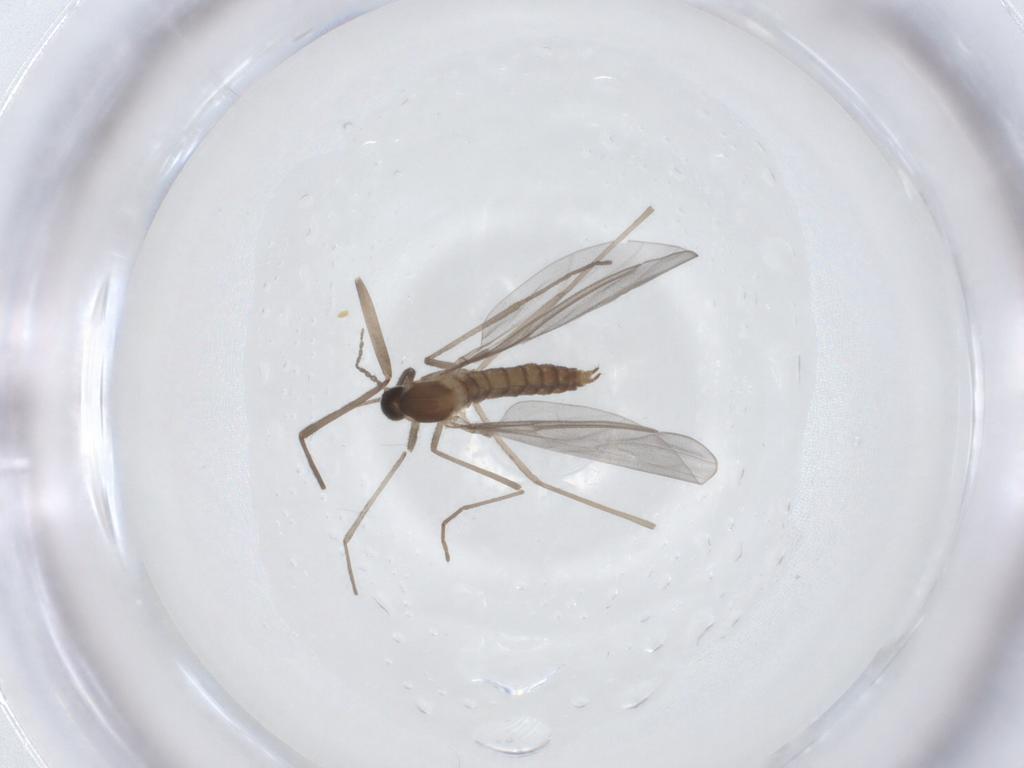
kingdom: Animalia
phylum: Arthropoda
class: Insecta
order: Diptera
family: Cecidomyiidae
